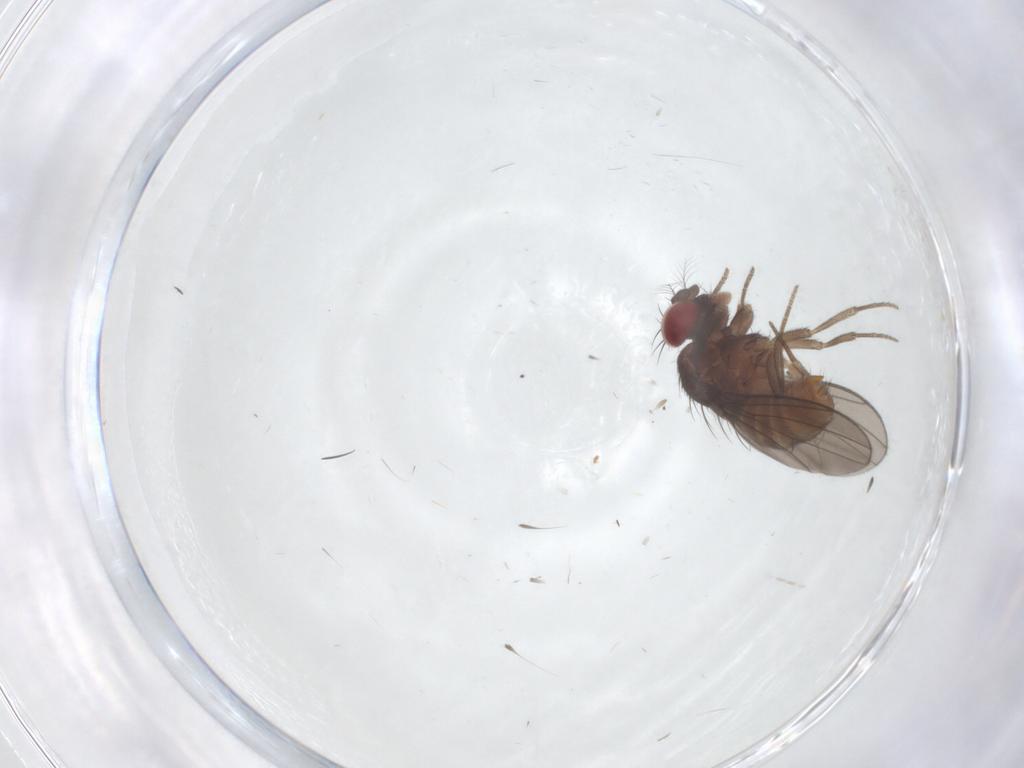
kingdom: Animalia
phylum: Arthropoda
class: Insecta
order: Diptera
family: Drosophilidae
